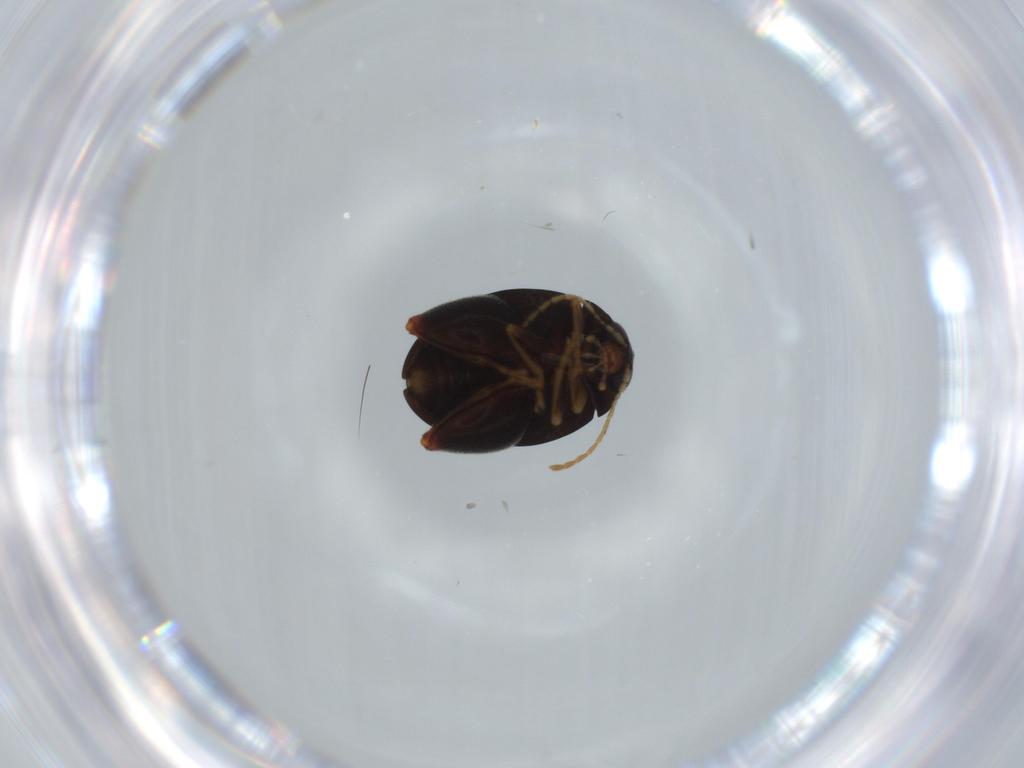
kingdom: Animalia
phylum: Arthropoda
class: Insecta
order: Coleoptera
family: Chrysomelidae
